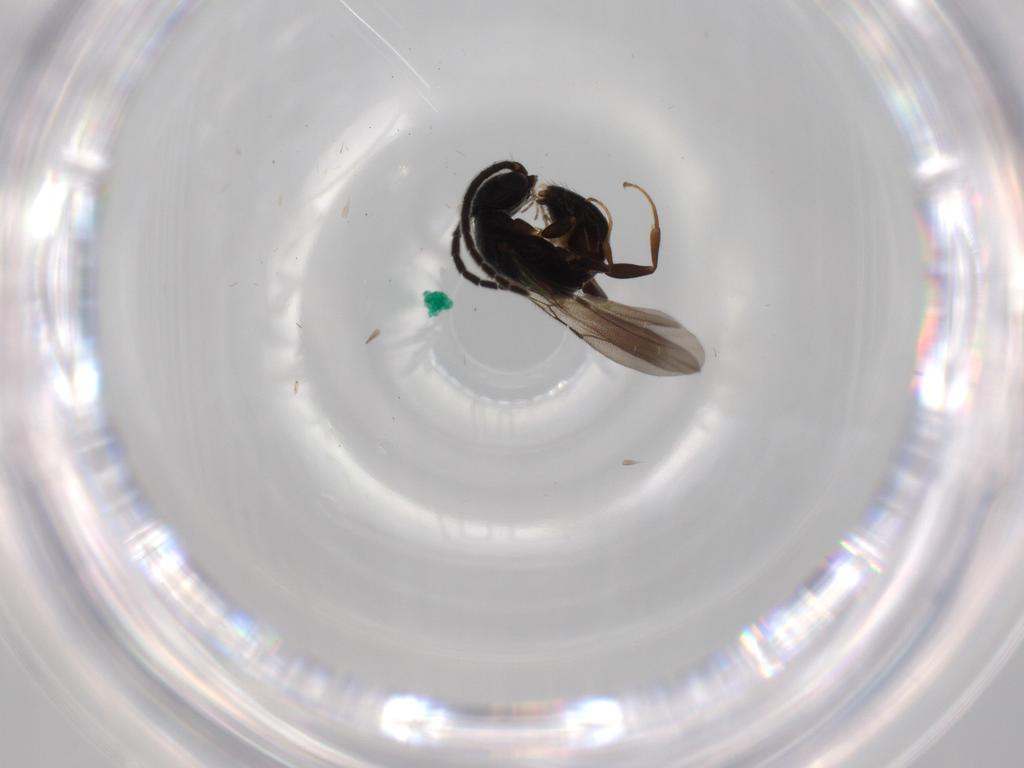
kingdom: Animalia
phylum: Arthropoda
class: Insecta
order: Hymenoptera
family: Bethylidae
